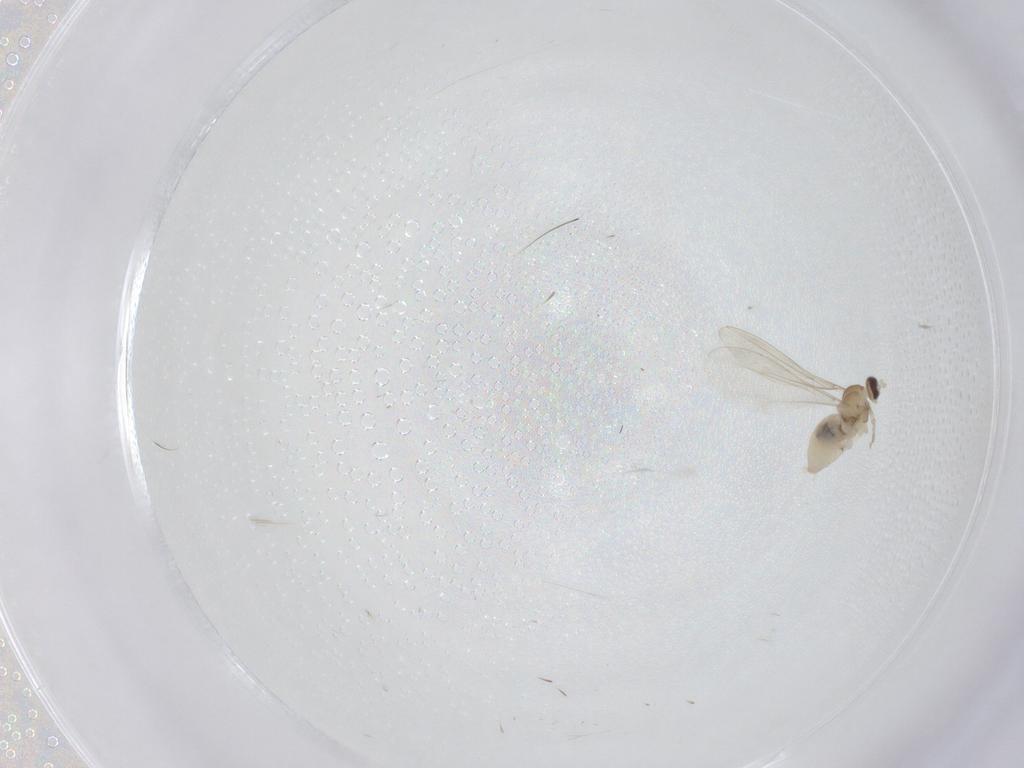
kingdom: Animalia
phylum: Arthropoda
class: Insecta
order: Diptera
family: Cecidomyiidae
